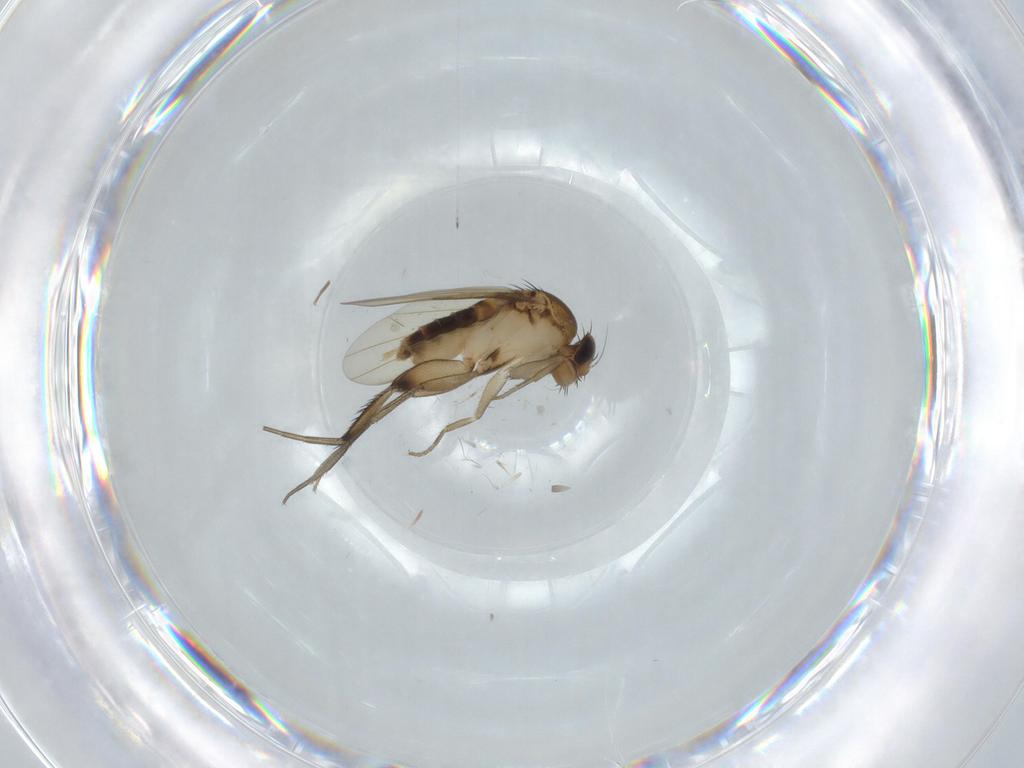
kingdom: Animalia
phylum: Arthropoda
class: Insecta
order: Diptera
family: Phoridae
